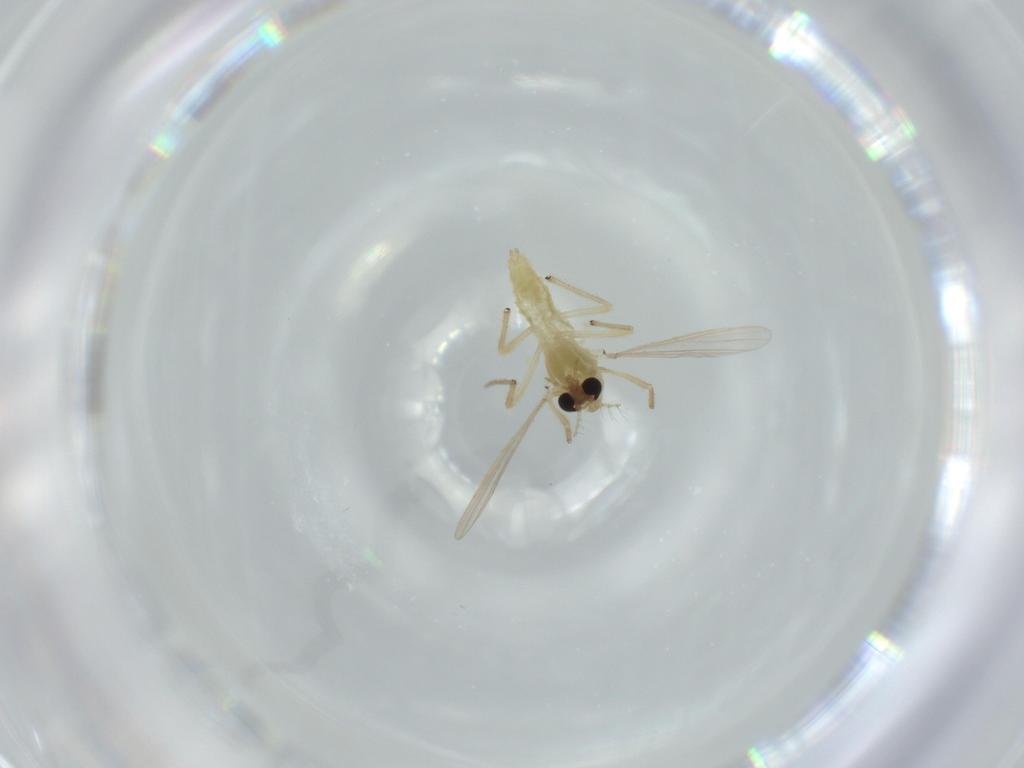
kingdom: Animalia
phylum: Arthropoda
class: Insecta
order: Diptera
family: Chironomidae
